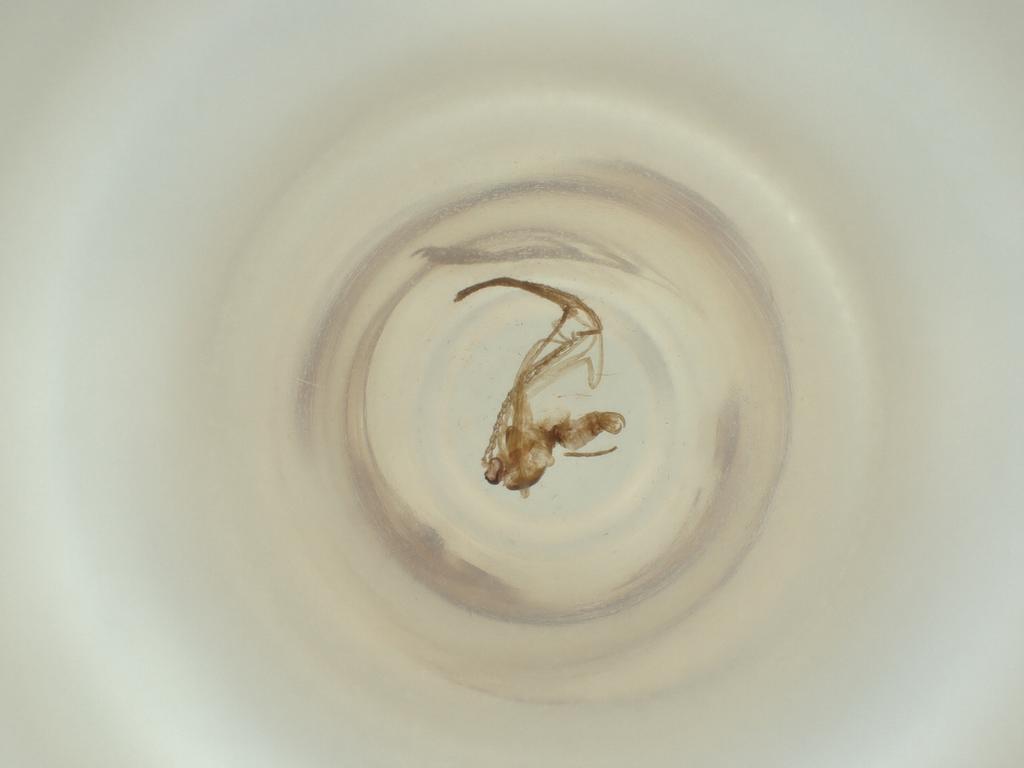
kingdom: Animalia
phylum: Arthropoda
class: Insecta
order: Diptera
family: Cecidomyiidae
